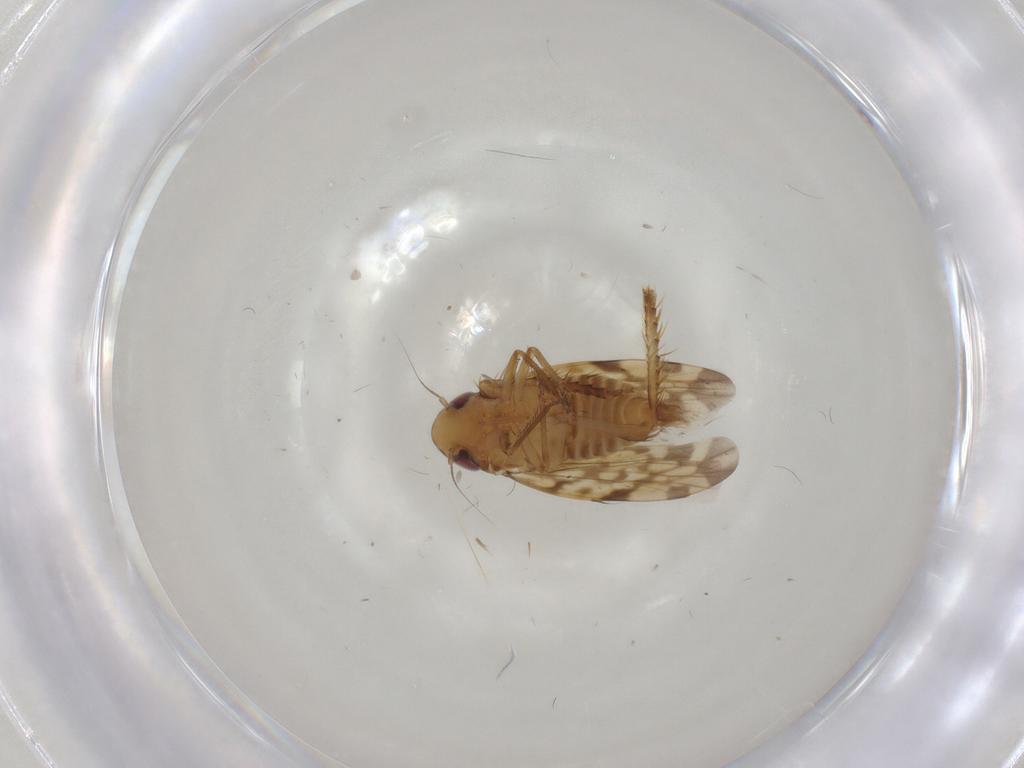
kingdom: Animalia
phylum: Arthropoda
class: Insecta
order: Hemiptera
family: Cicadellidae
